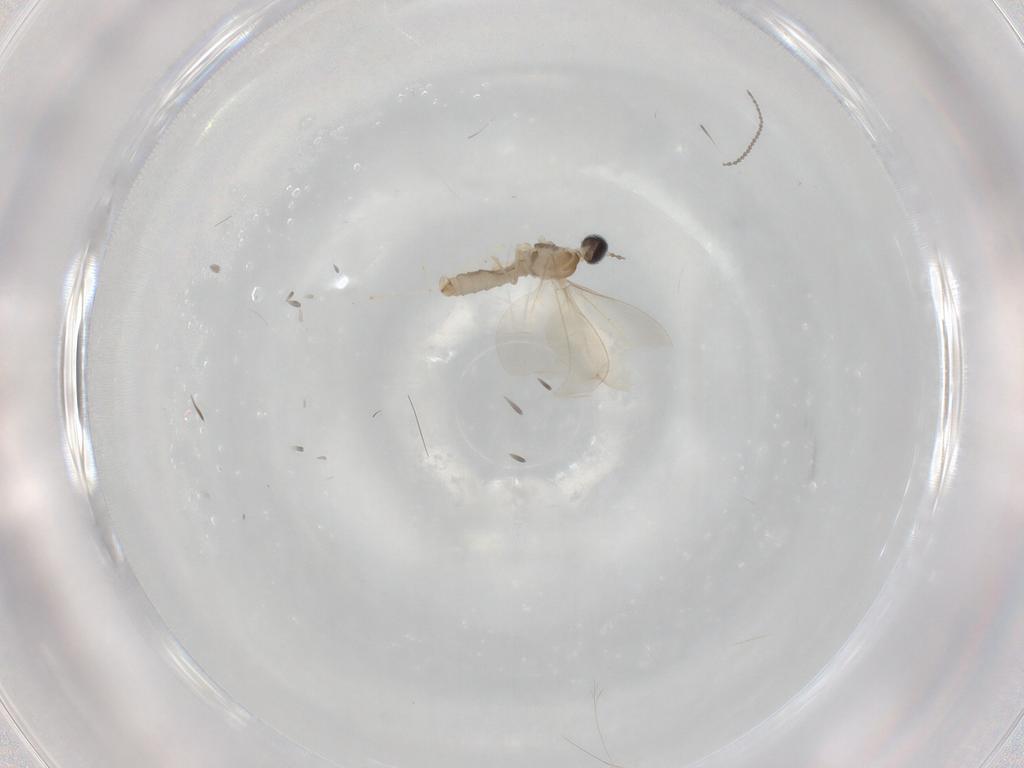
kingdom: Animalia
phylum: Arthropoda
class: Insecta
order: Diptera
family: Cecidomyiidae
